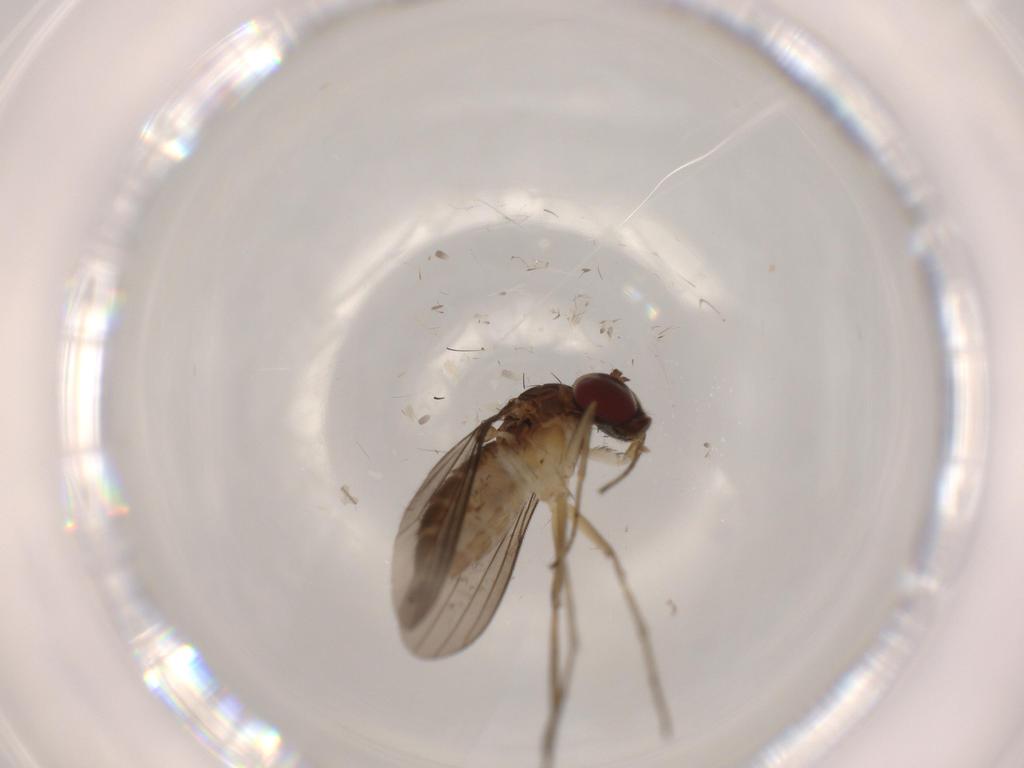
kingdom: Animalia
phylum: Arthropoda
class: Insecta
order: Diptera
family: Dolichopodidae
